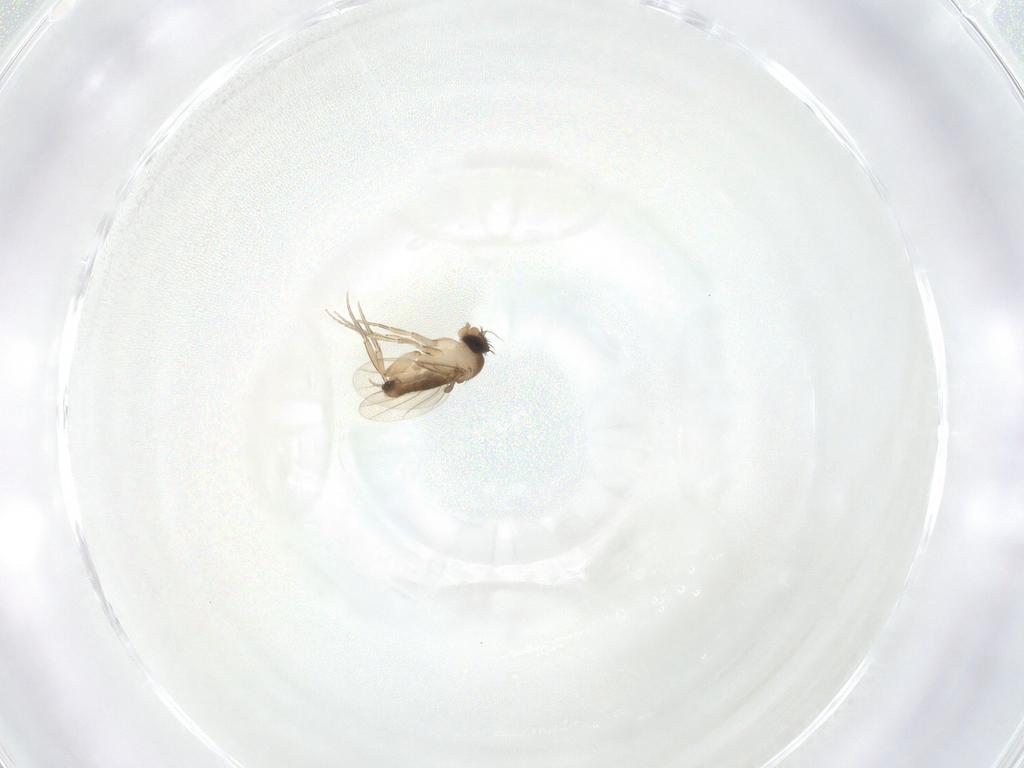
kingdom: Animalia
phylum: Arthropoda
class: Insecta
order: Diptera
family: Phoridae
